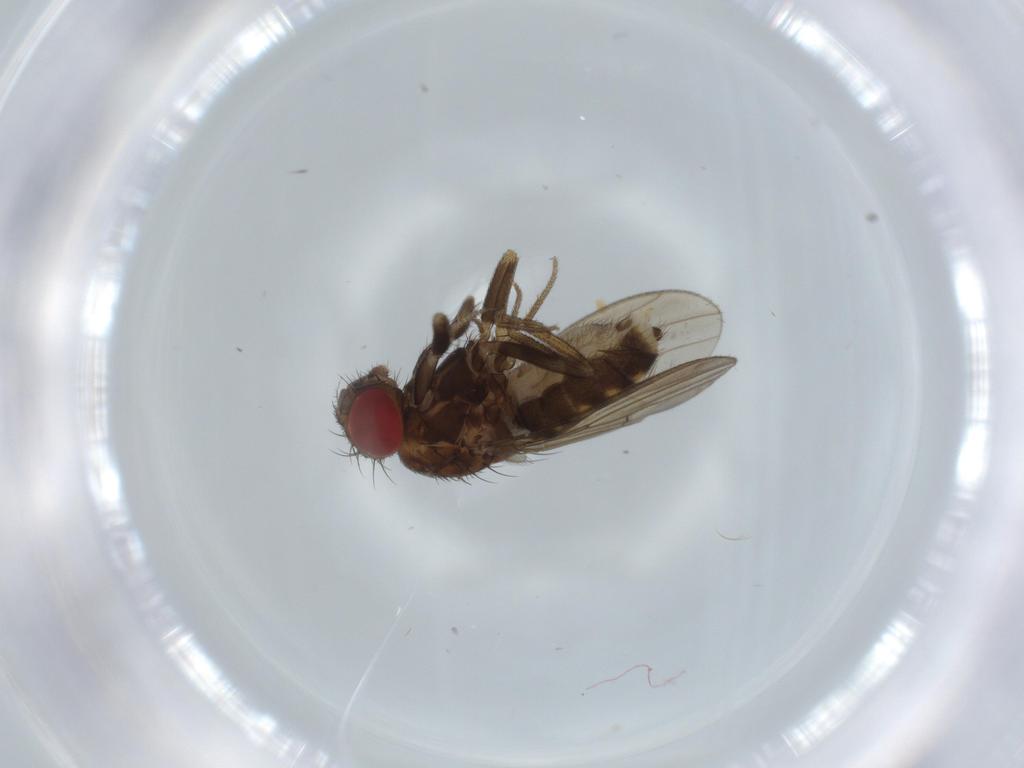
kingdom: Animalia
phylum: Arthropoda
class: Insecta
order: Diptera
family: Drosophilidae
